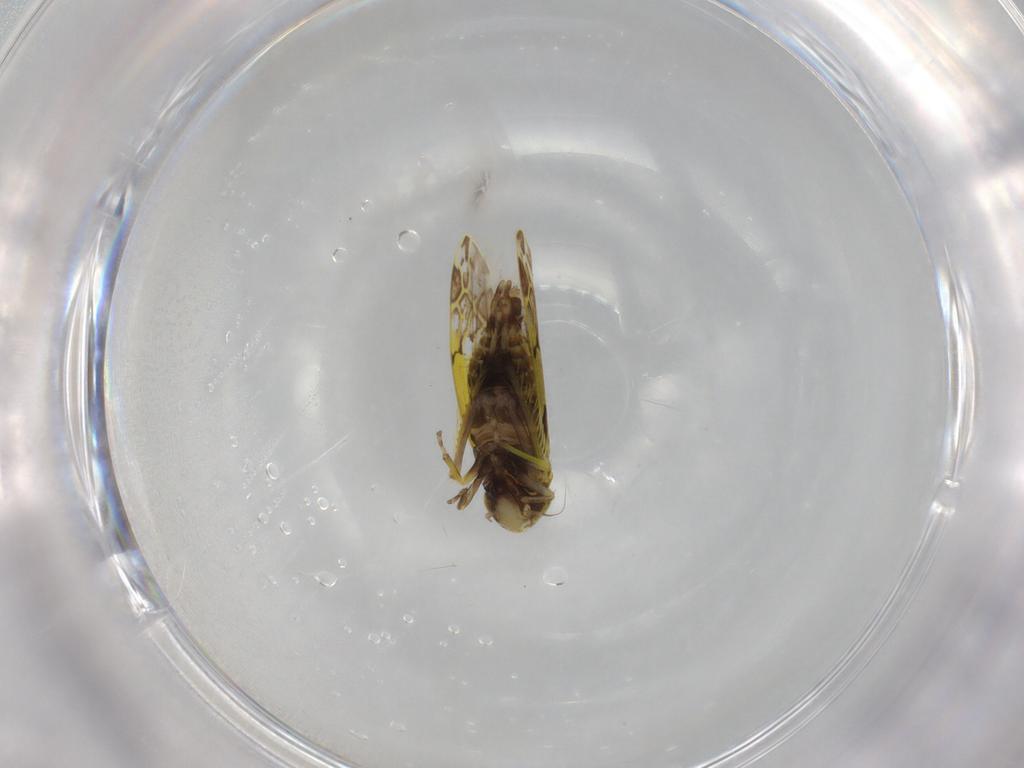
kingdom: Animalia
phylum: Arthropoda
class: Insecta
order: Hemiptera
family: Cicadellidae
